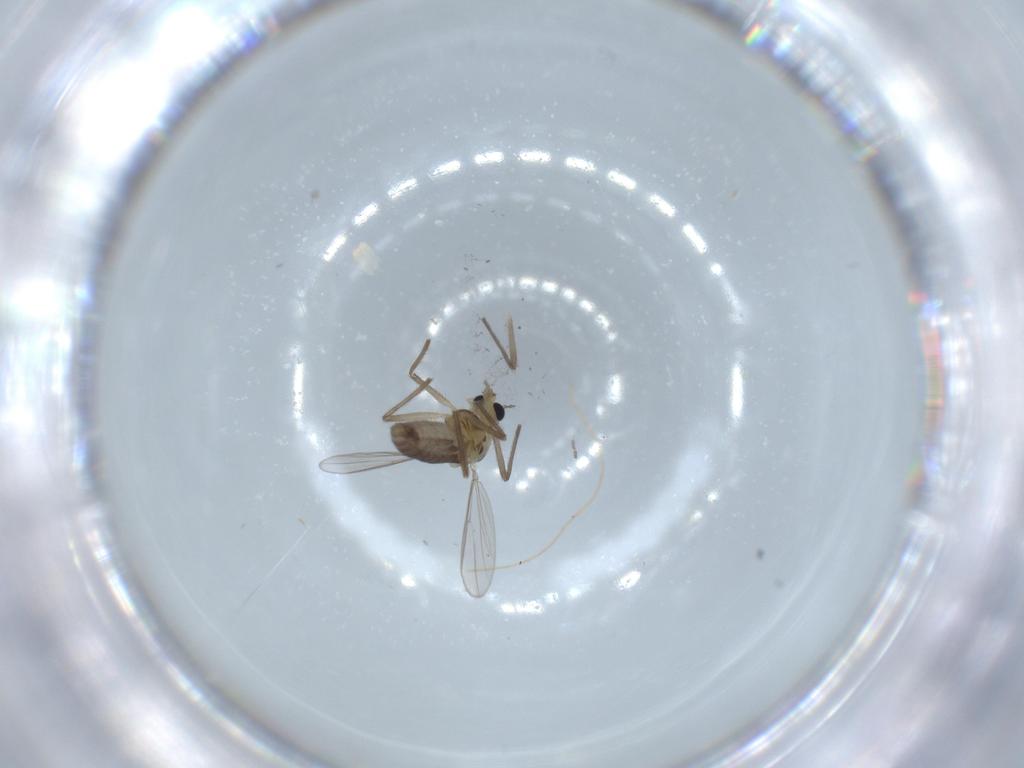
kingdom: Animalia
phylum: Arthropoda
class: Insecta
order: Diptera
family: Chironomidae
